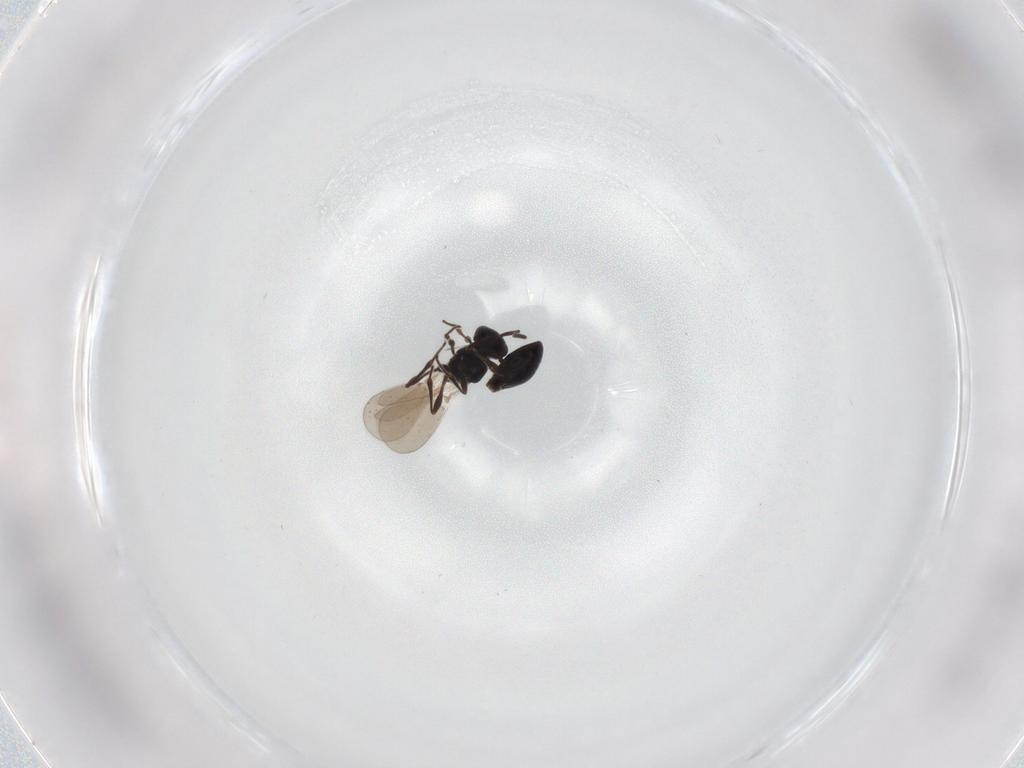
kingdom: Animalia
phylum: Arthropoda
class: Insecta
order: Hymenoptera
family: Platygastridae
